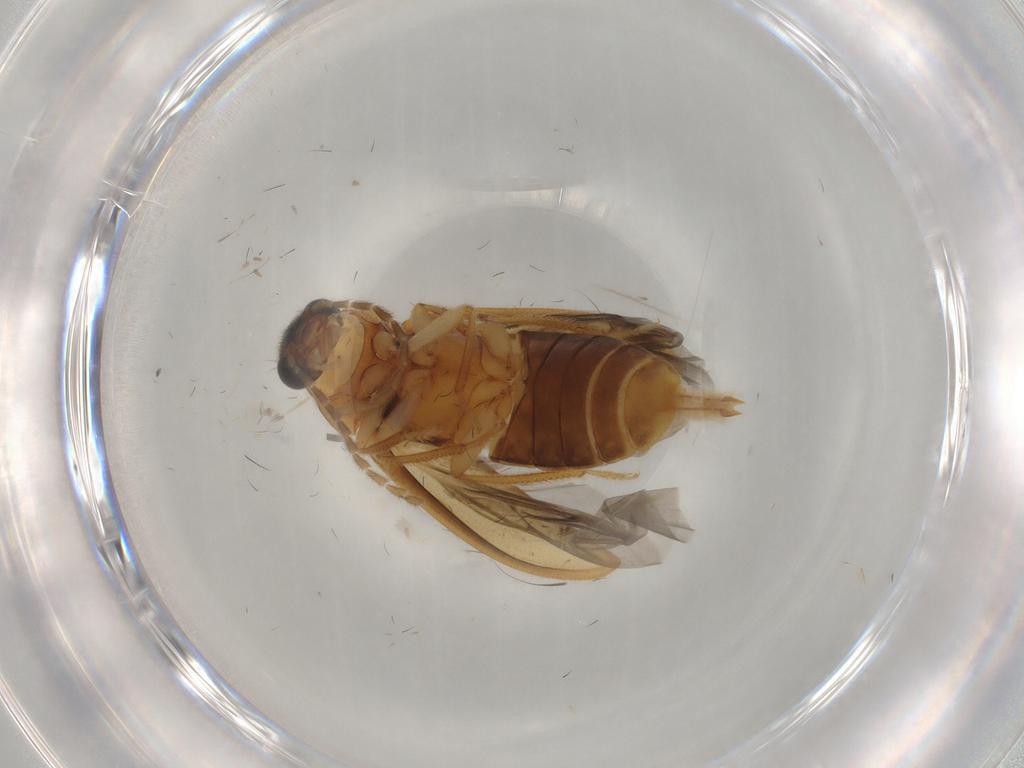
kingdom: Animalia
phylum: Arthropoda
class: Insecta
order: Coleoptera
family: Ptilodactylidae
